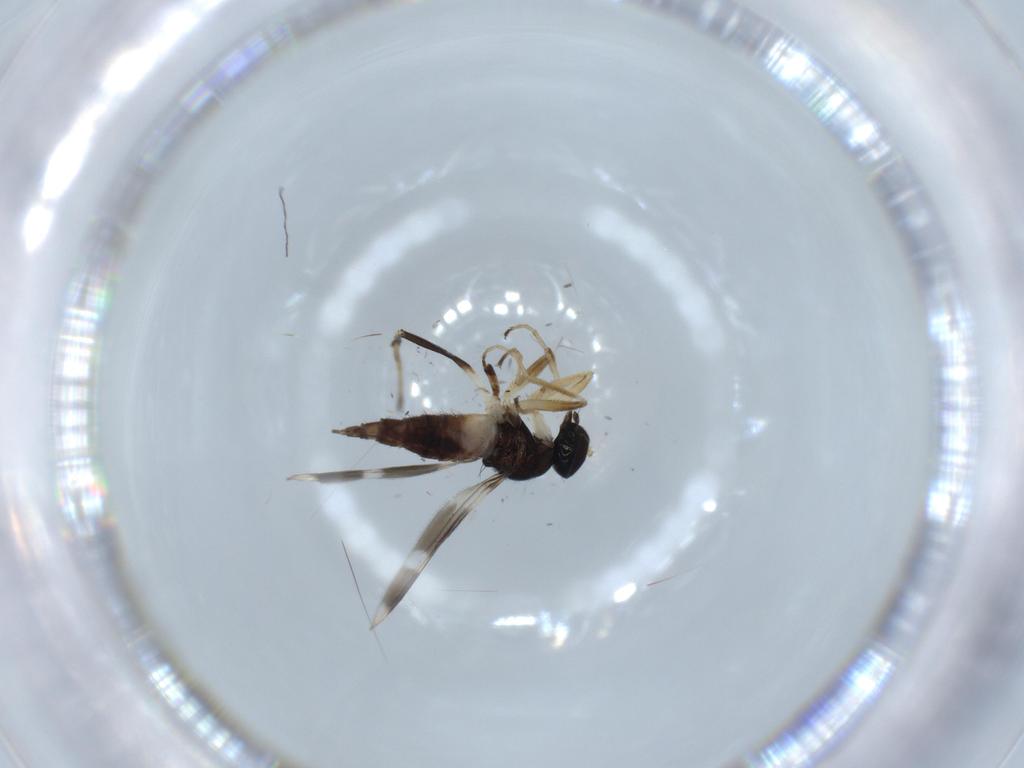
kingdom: Animalia
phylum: Arthropoda
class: Insecta
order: Diptera
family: Hybotidae
